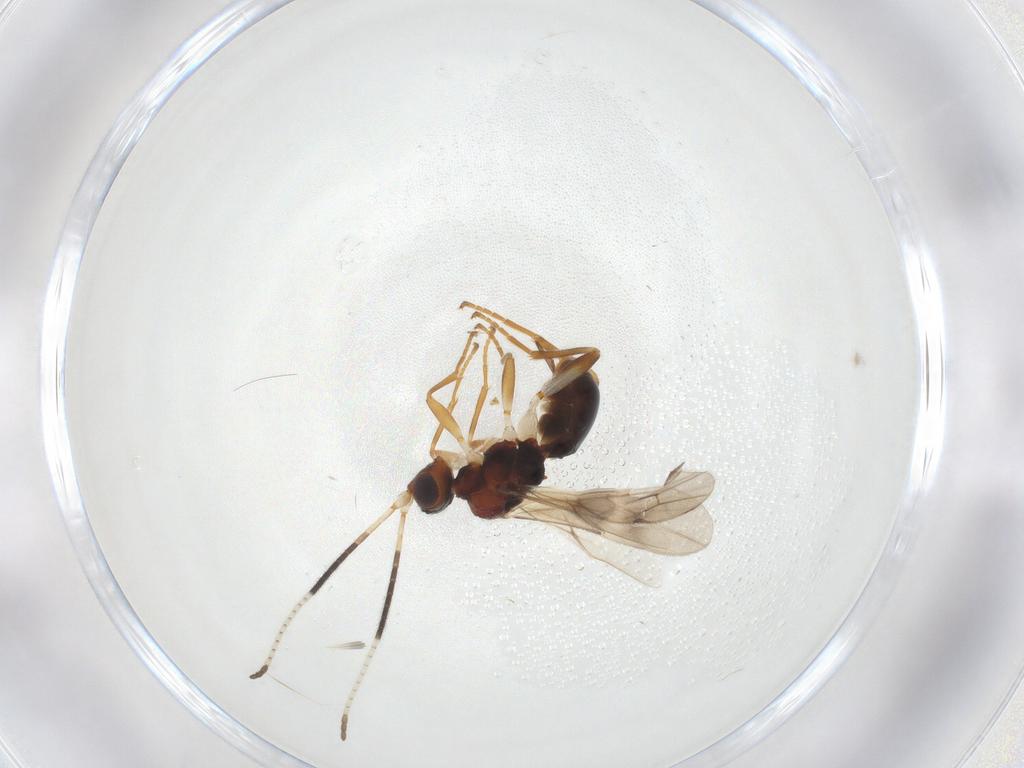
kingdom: Animalia
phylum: Arthropoda
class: Insecta
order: Hymenoptera
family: Braconidae
